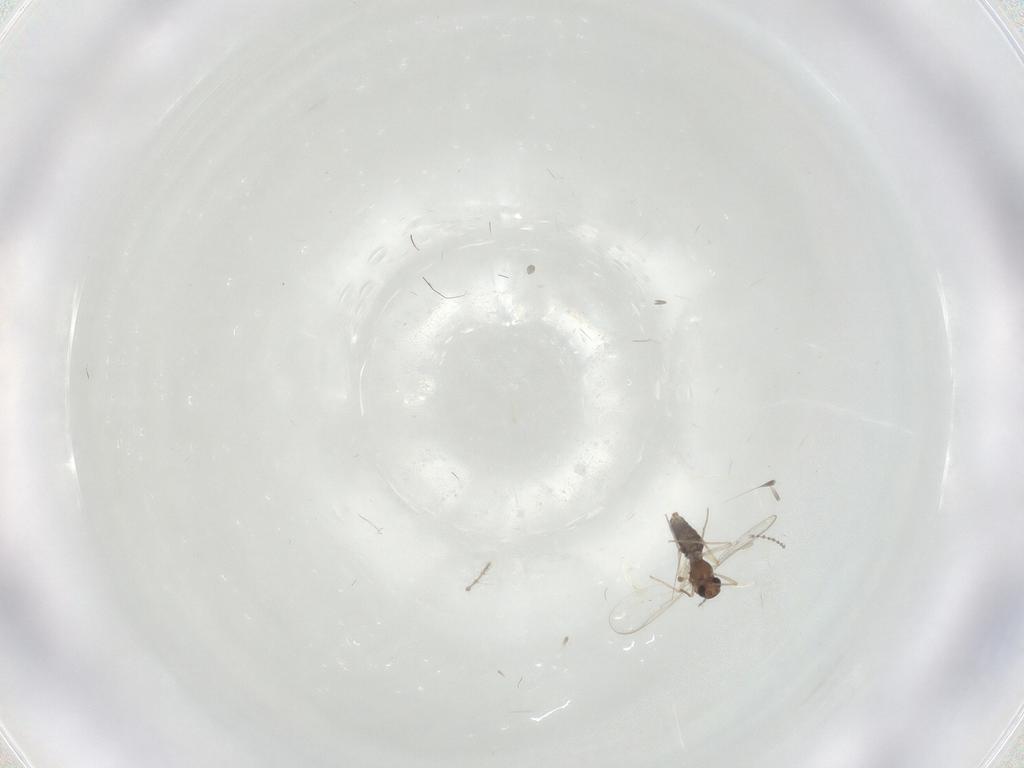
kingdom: Animalia
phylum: Arthropoda
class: Insecta
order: Diptera
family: Chironomidae
